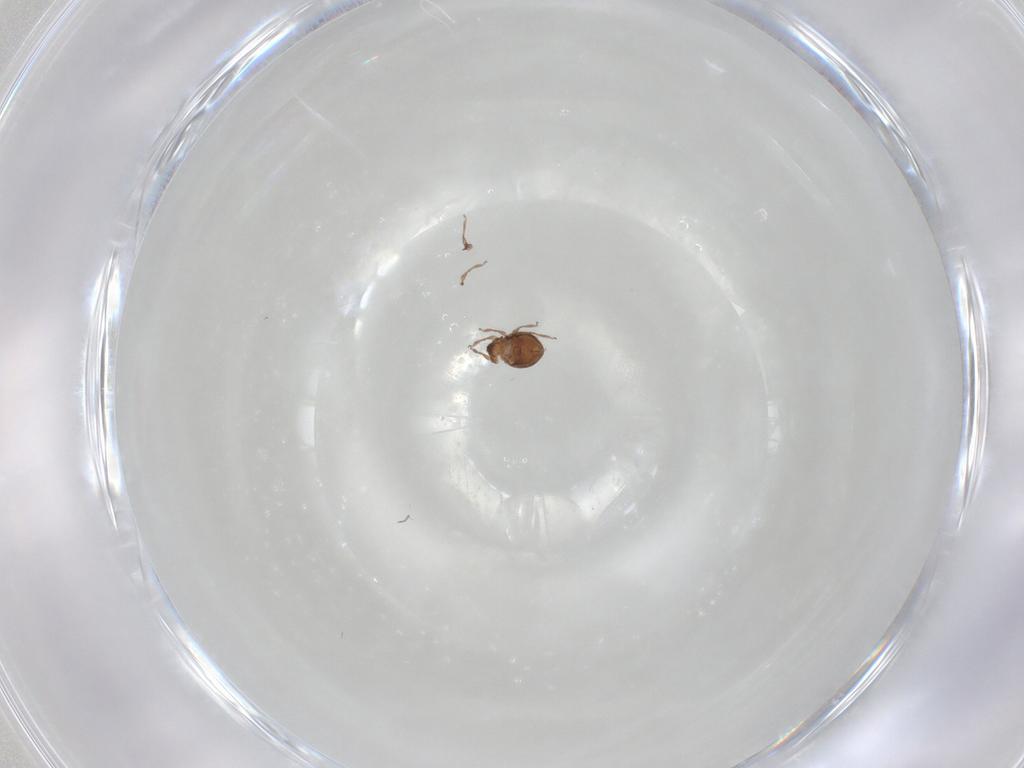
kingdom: Animalia
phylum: Arthropoda
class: Arachnida
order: Sarcoptiformes
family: Scheloribatidae
